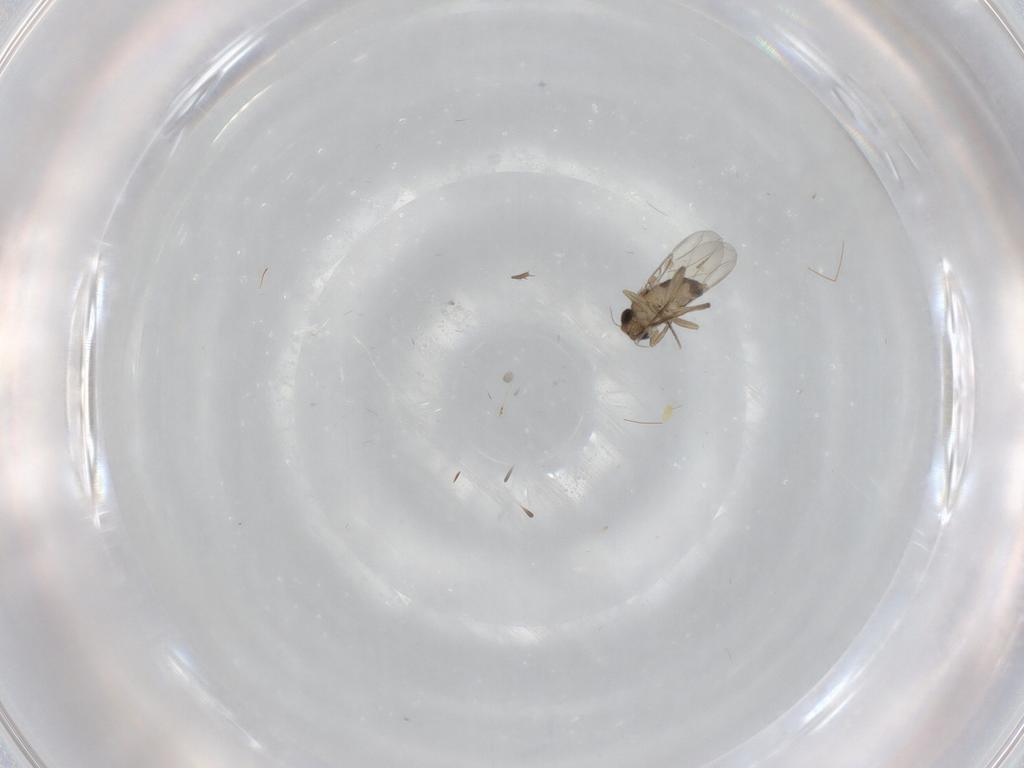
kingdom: Animalia
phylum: Arthropoda
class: Insecta
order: Diptera
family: Phoridae
